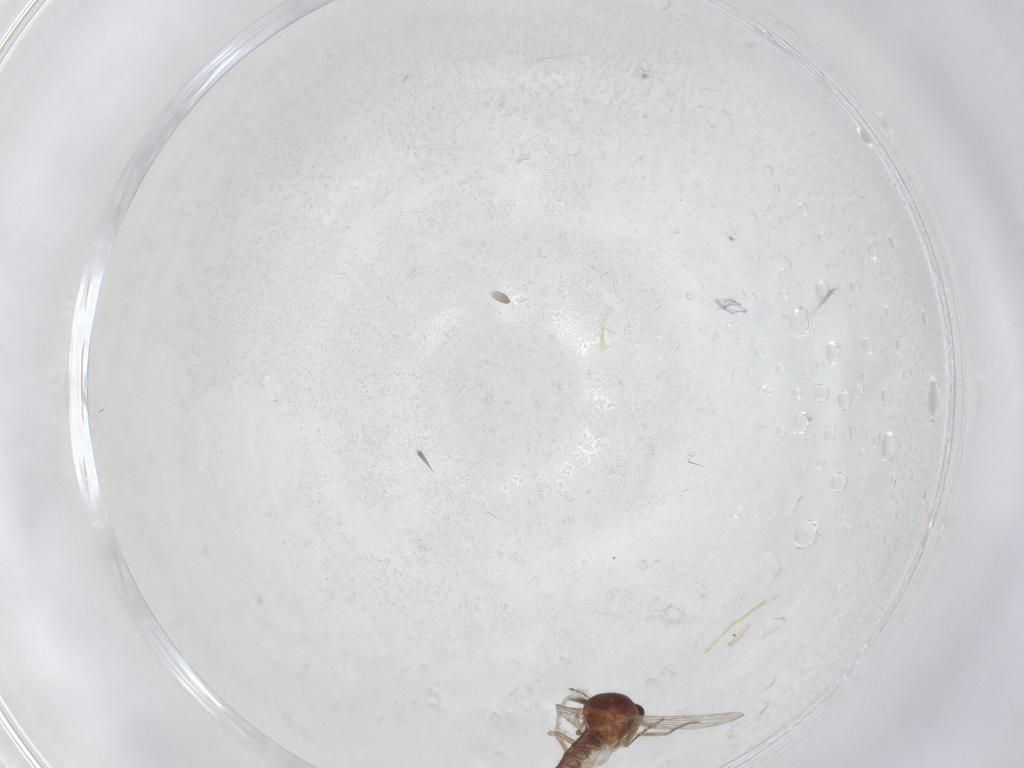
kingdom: Animalia
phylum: Arthropoda
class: Insecta
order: Diptera
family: Ceratopogonidae
